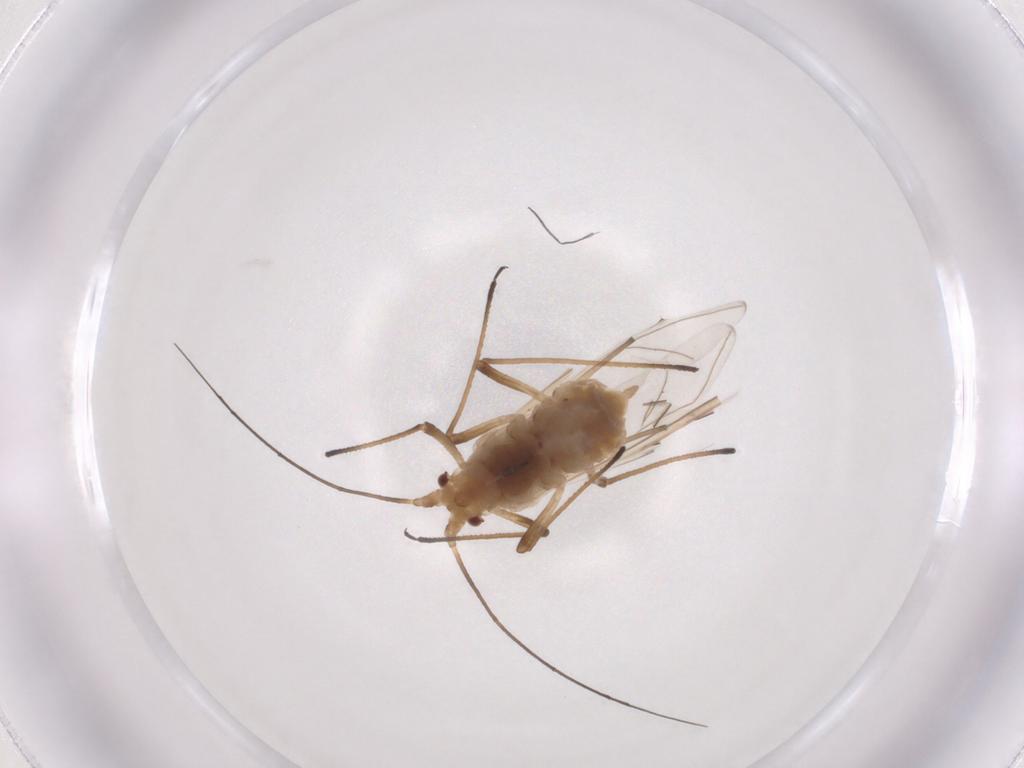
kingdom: Animalia
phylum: Arthropoda
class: Insecta
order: Hemiptera
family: Aphididae
